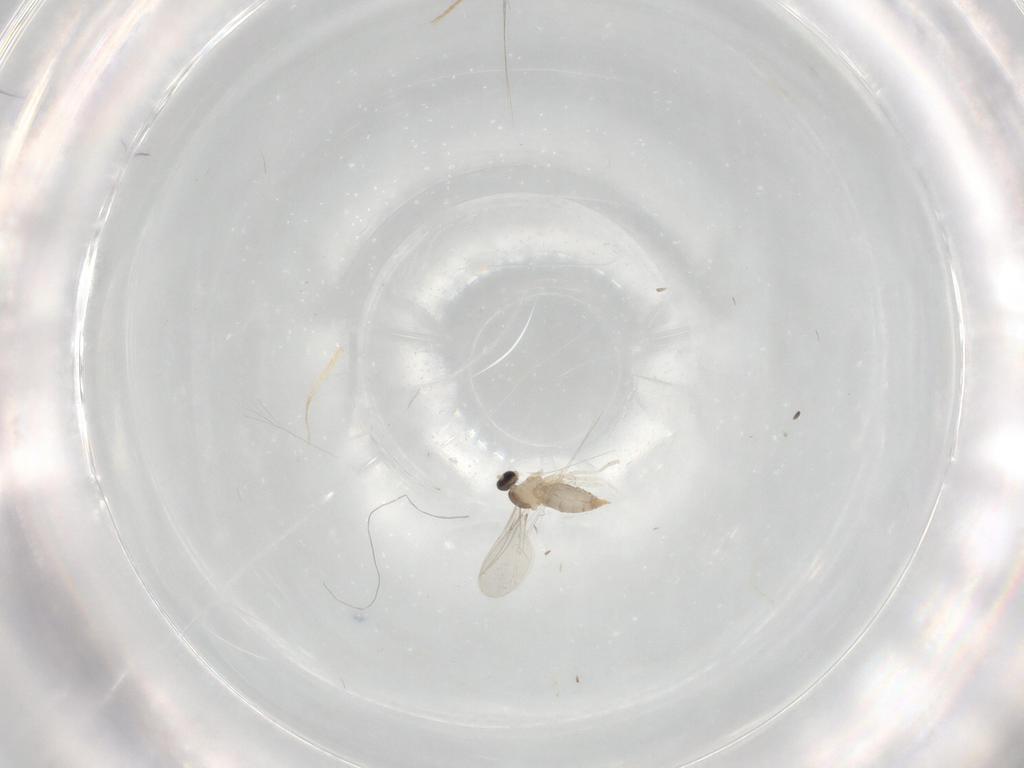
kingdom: Animalia
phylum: Arthropoda
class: Insecta
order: Diptera
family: Cecidomyiidae
